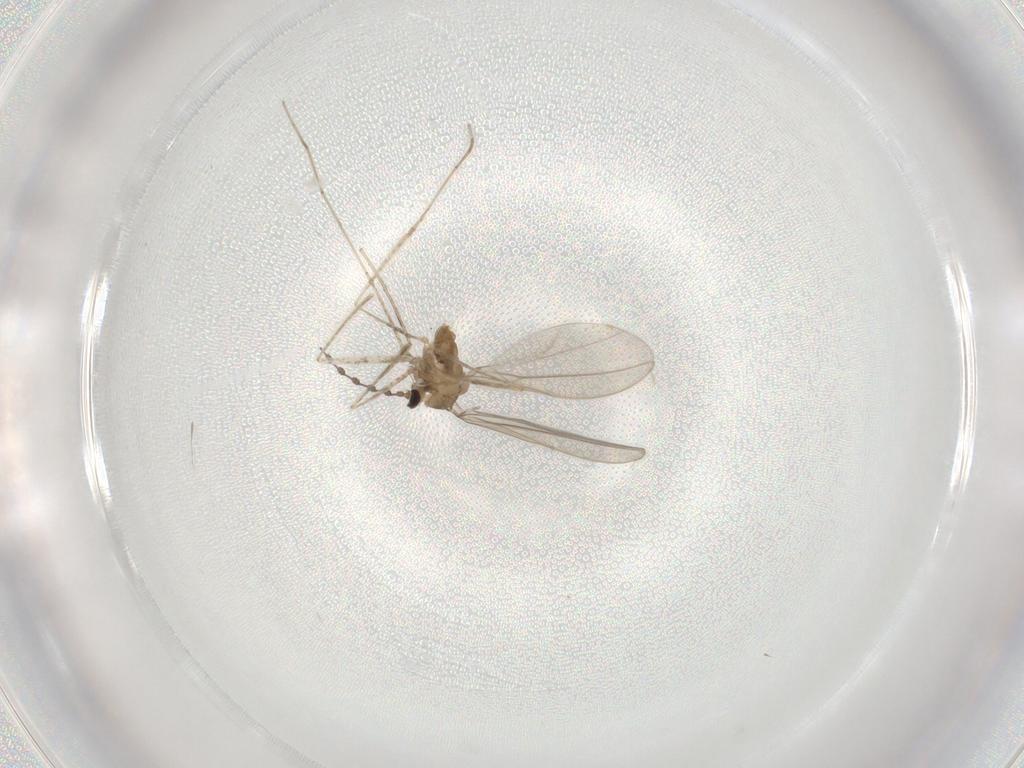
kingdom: Animalia
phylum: Arthropoda
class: Insecta
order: Diptera
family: Cecidomyiidae
